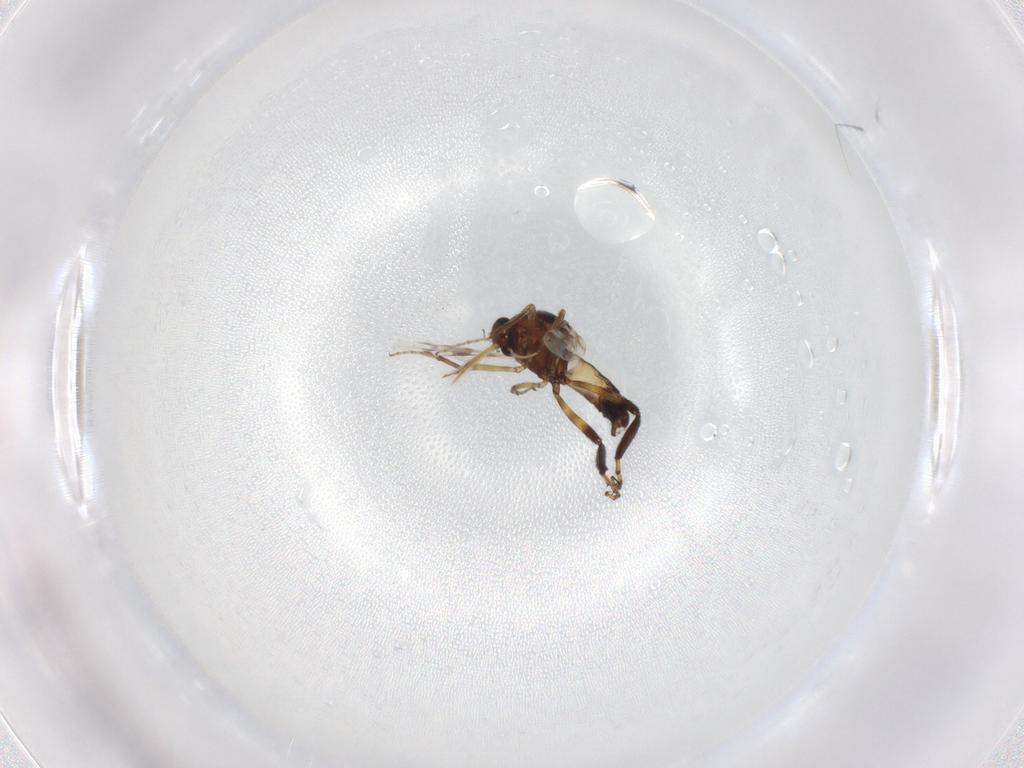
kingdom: Animalia
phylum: Arthropoda
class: Insecta
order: Diptera
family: Ceratopogonidae
